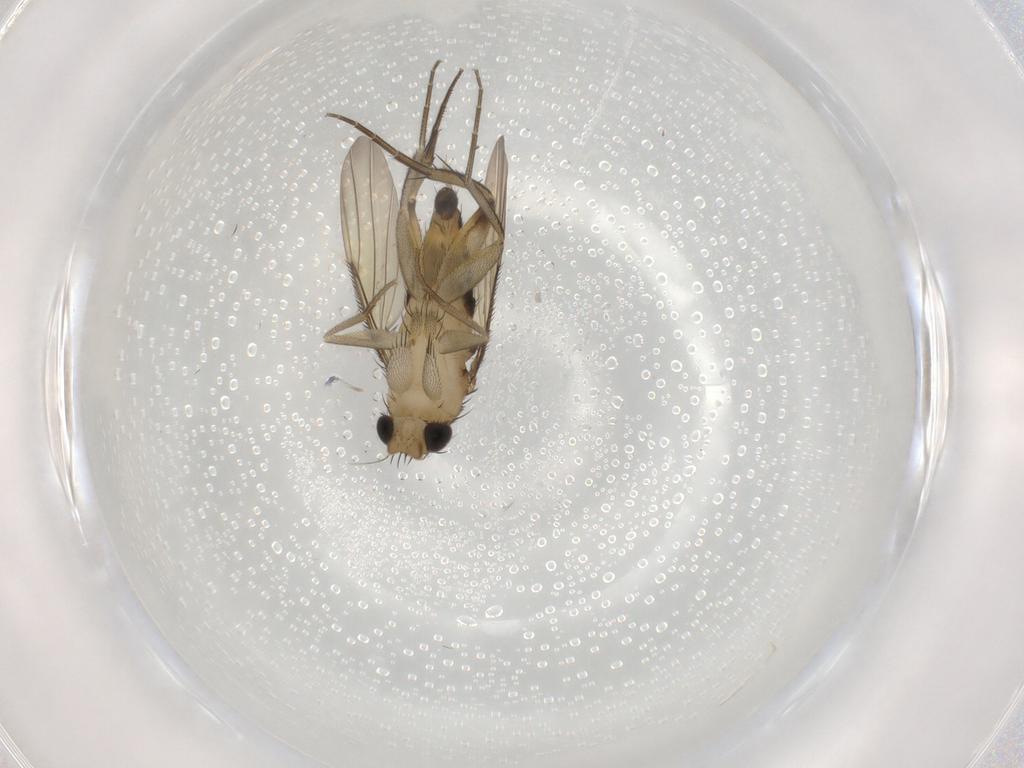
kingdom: Animalia
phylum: Arthropoda
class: Insecta
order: Diptera
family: Phoridae
